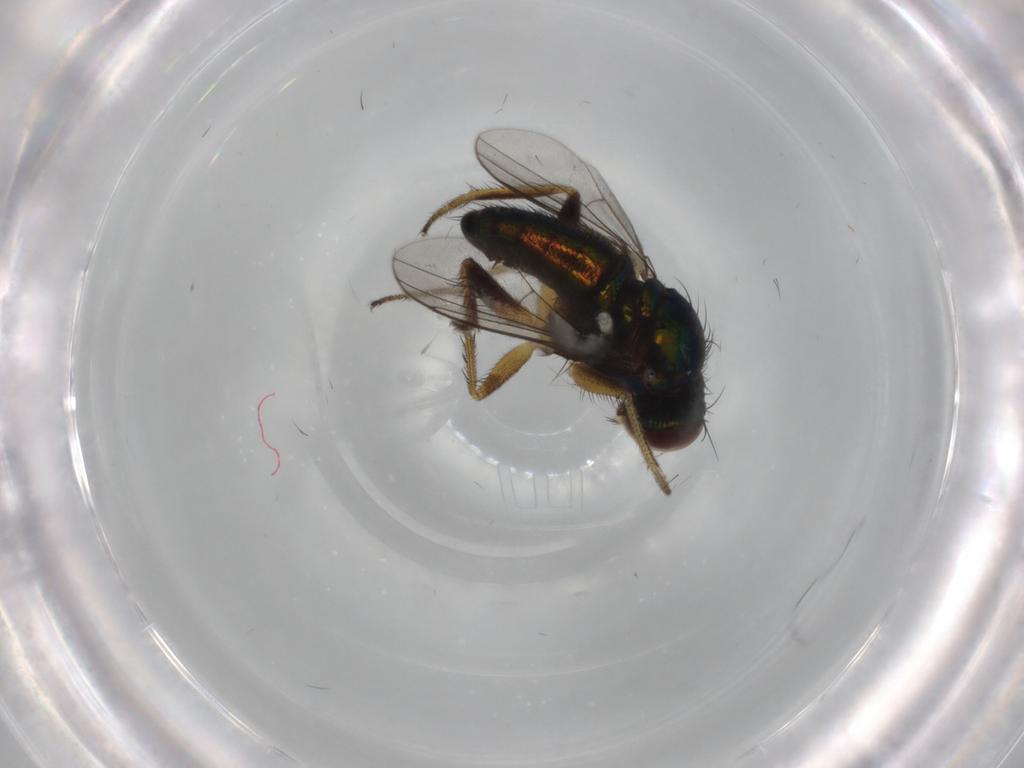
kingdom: Animalia
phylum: Arthropoda
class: Insecta
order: Diptera
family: Dolichopodidae
